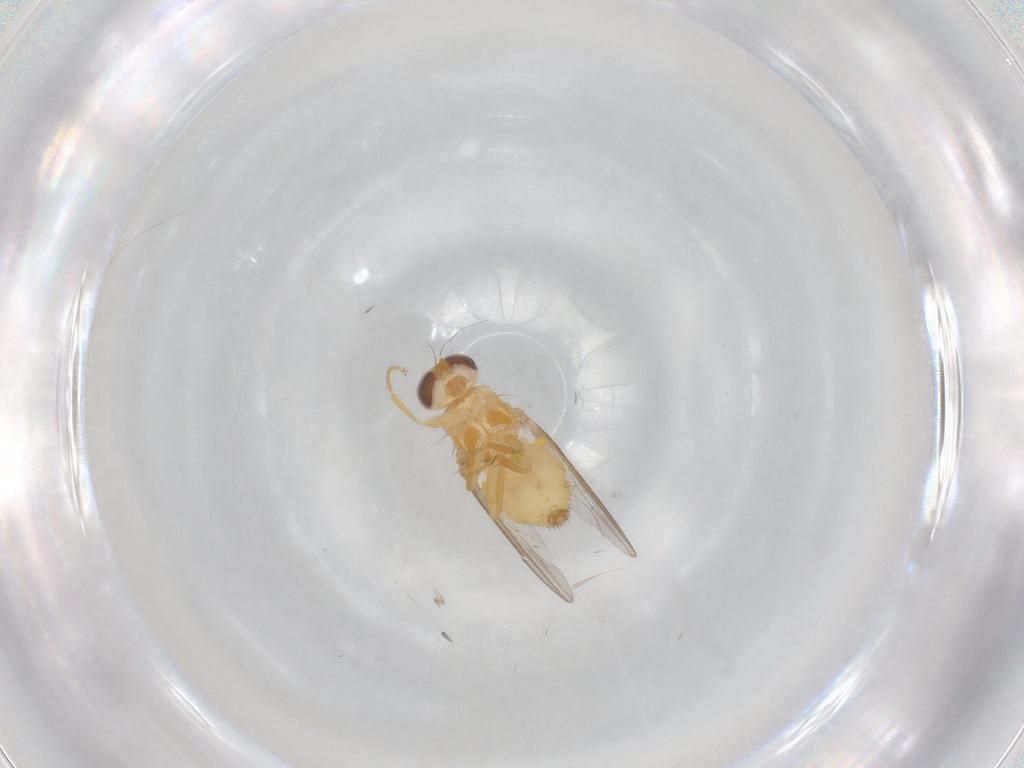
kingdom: Animalia
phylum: Arthropoda
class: Insecta
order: Diptera
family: Chyromyidae
